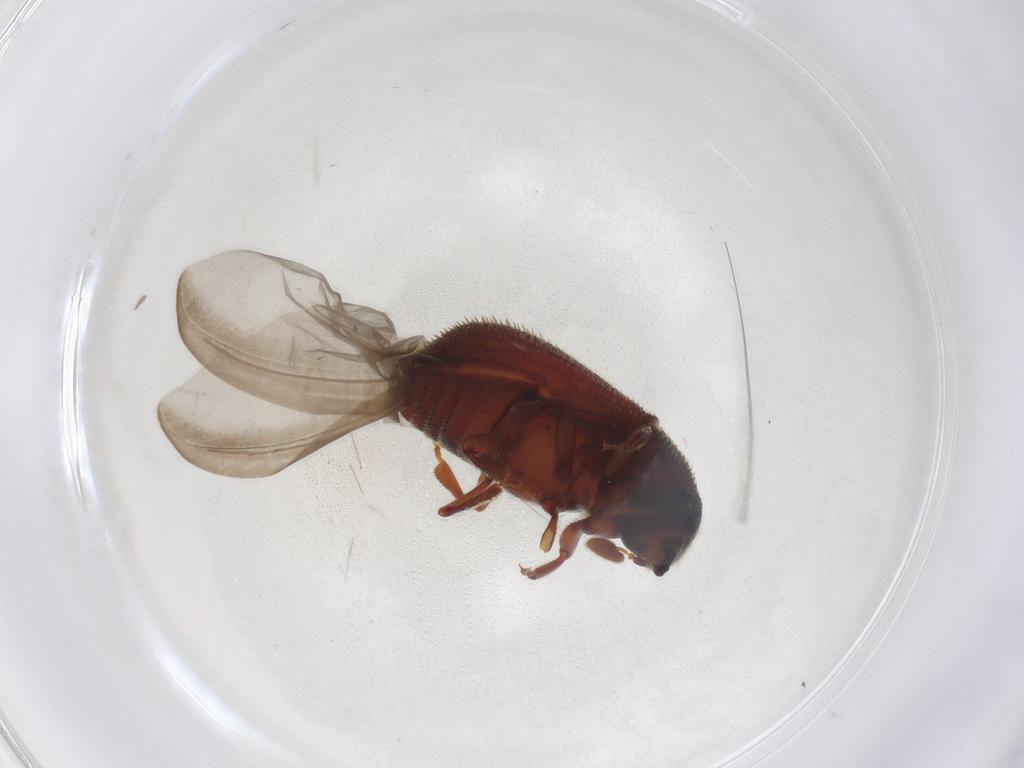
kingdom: Animalia
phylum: Arthropoda
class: Insecta
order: Coleoptera
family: Curculionidae
